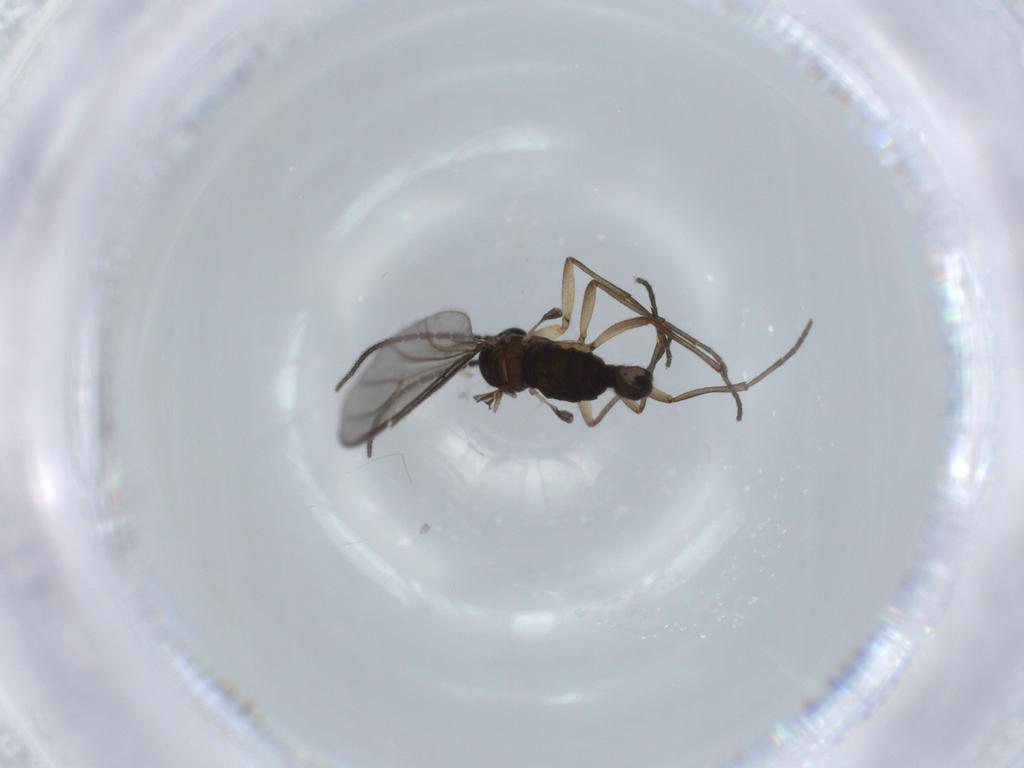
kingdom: Animalia
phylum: Arthropoda
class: Insecta
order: Diptera
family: Sciaridae
